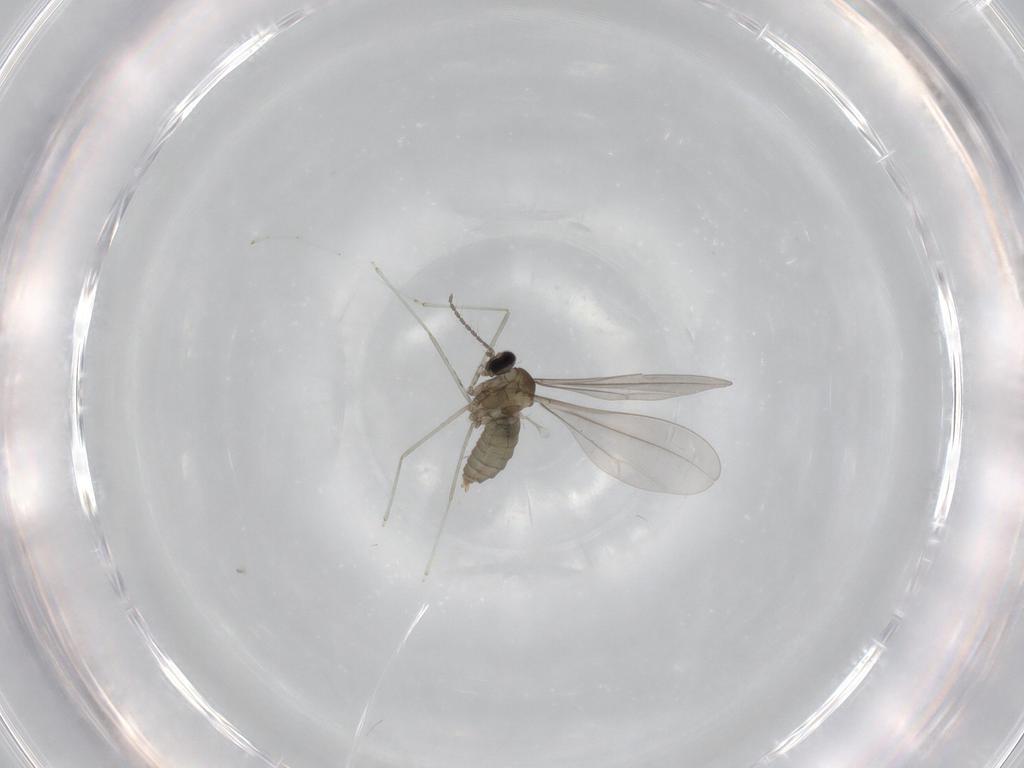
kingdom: Animalia
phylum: Arthropoda
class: Insecta
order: Diptera
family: Cecidomyiidae
